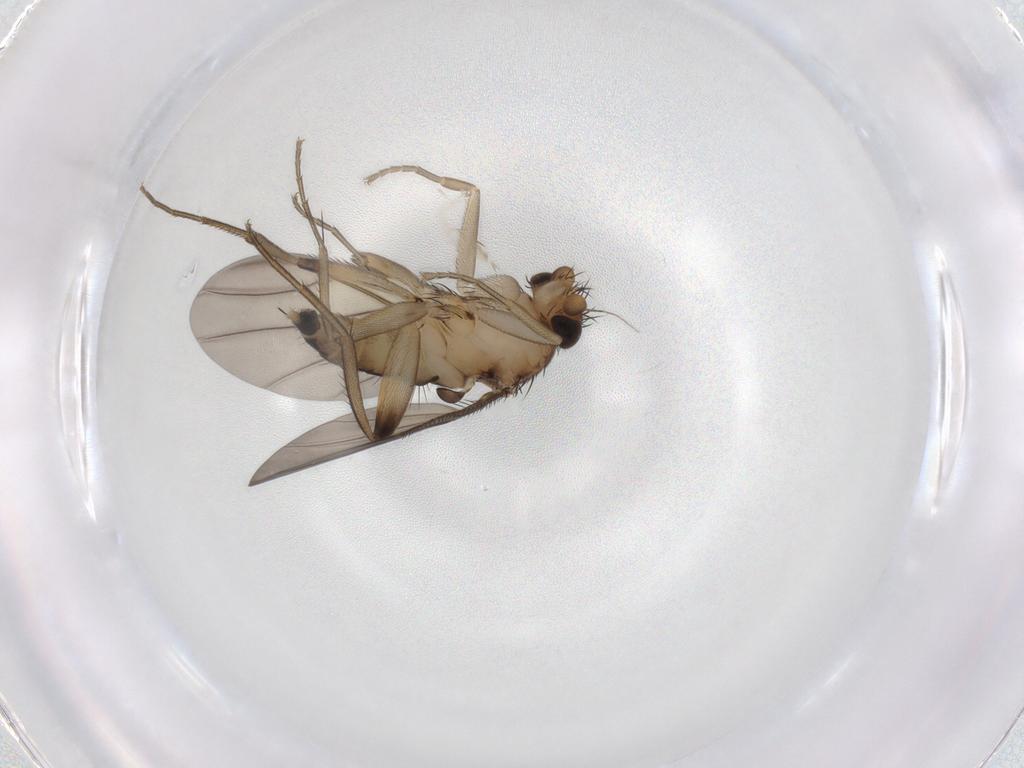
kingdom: Animalia
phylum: Arthropoda
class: Insecta
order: Diptera
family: Phoridae
